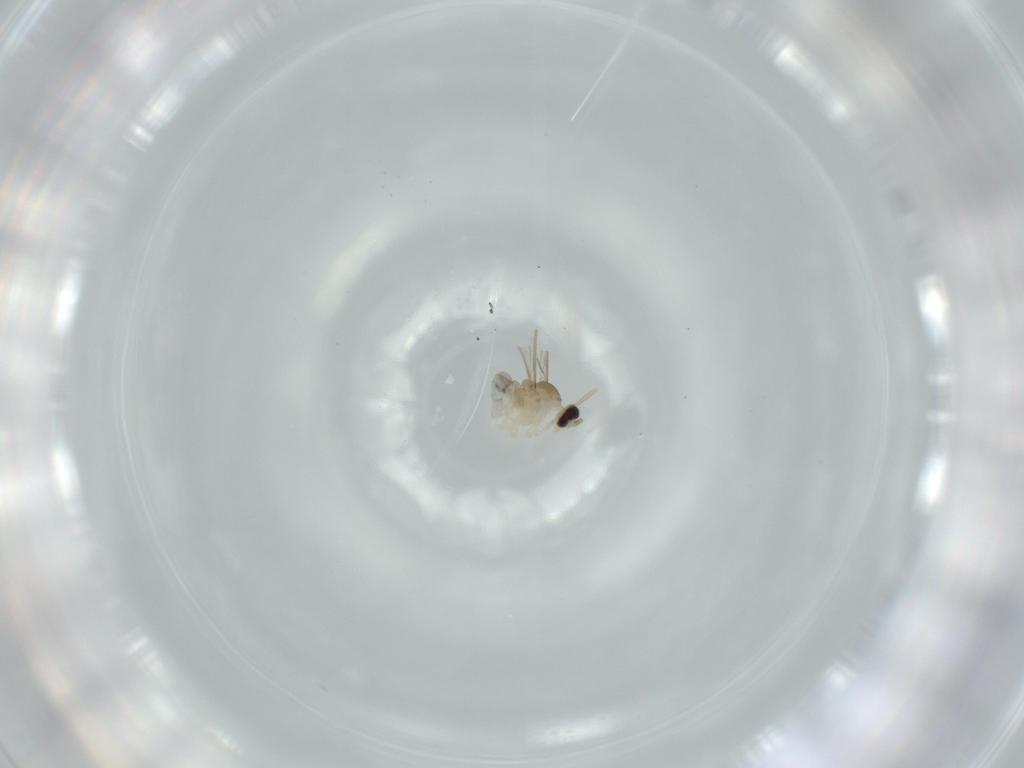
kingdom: Animalia
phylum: Arthropoda
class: Insecta
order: Diptera
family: Cecidomyiidae
